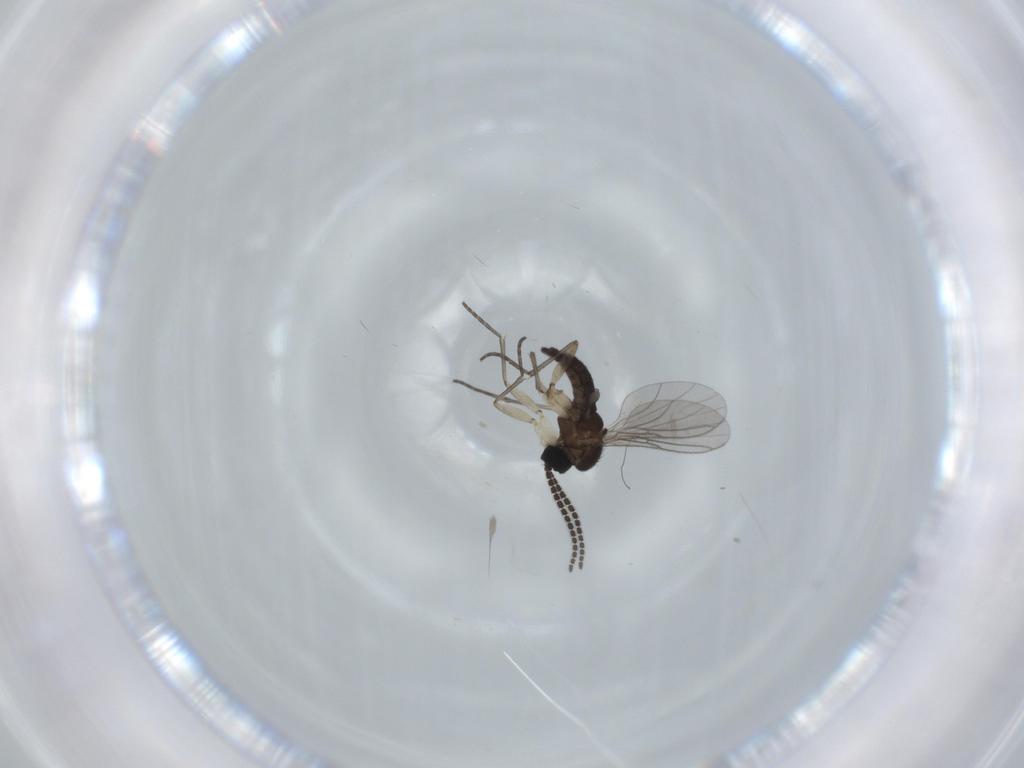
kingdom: Animalia
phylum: Arthropoda
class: Insecta
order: Diptera
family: Sciaridae
